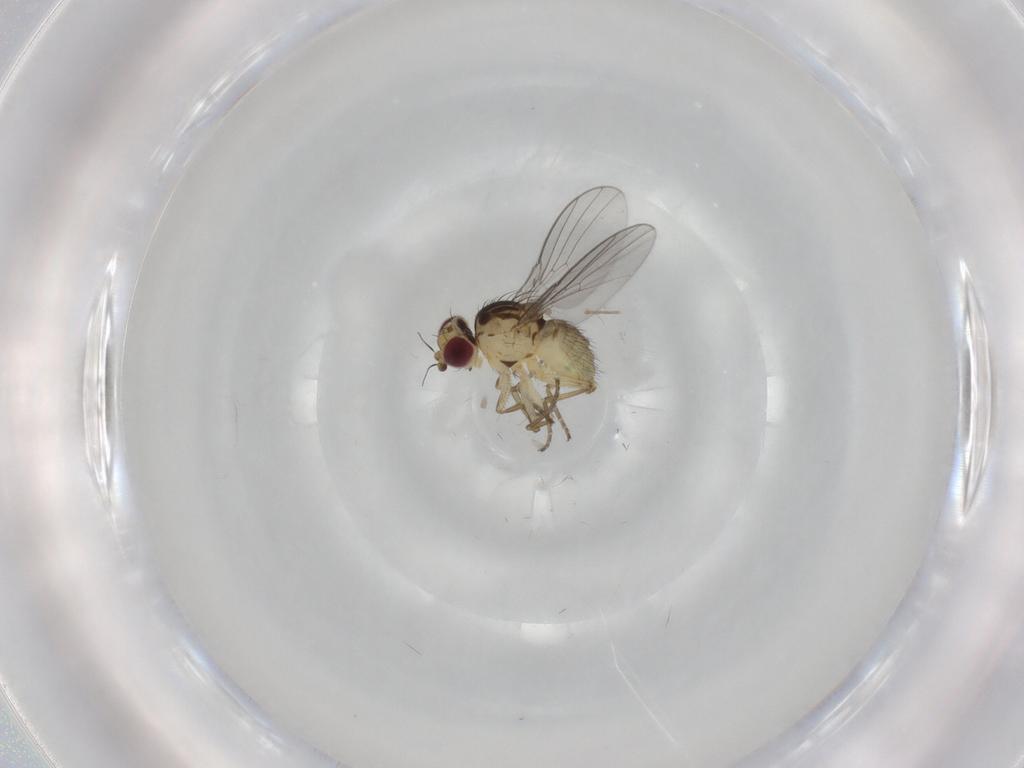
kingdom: Animalia
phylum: Arthropoda
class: Insecta
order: Diptera
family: Agromyzidae
